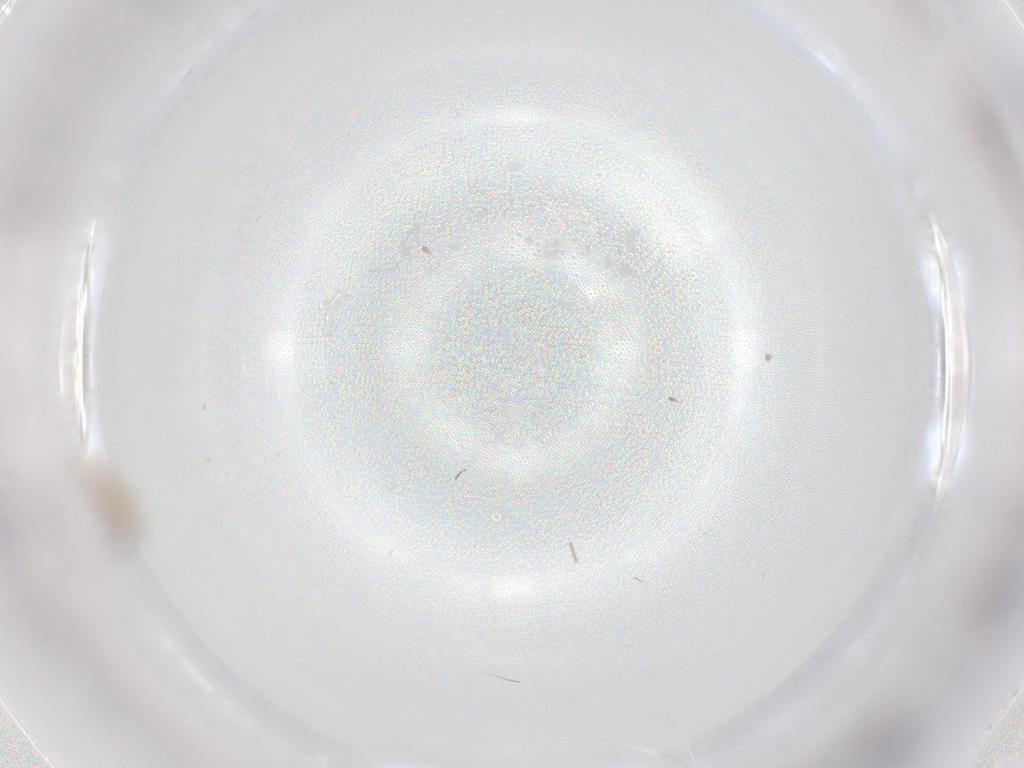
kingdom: Animalia
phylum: Arthropoda
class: Insecta
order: Diptera
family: Cecidomyiidae
